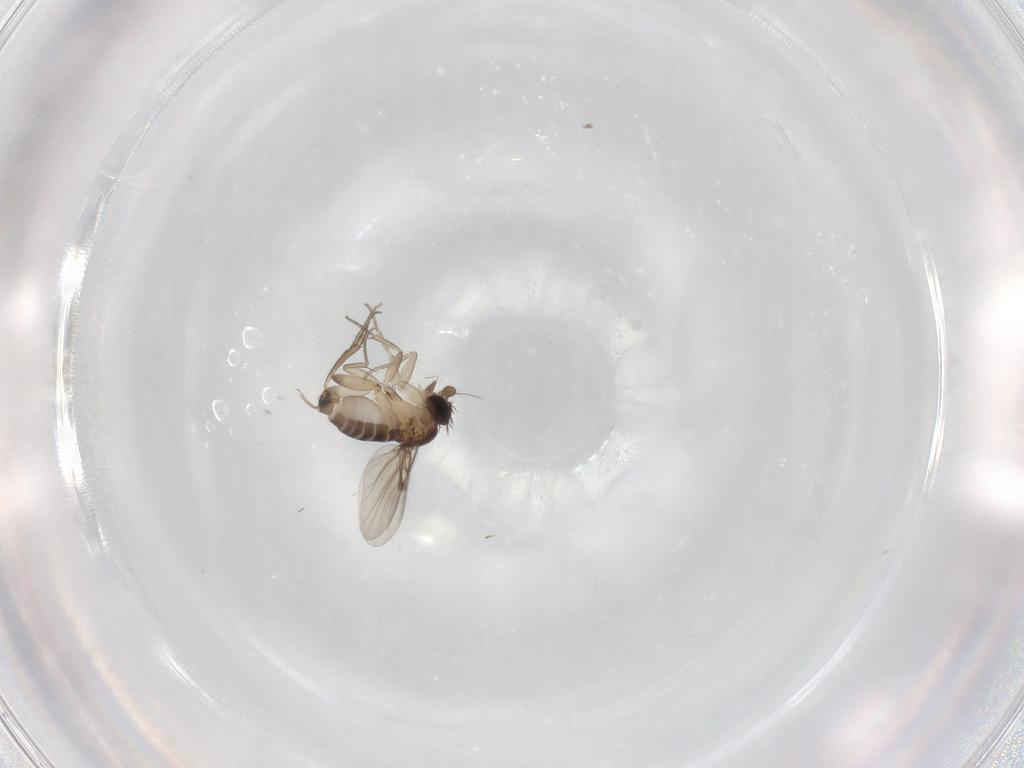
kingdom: Animalia
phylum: Arthropoda
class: Insecta
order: Diptera
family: Phoridae
